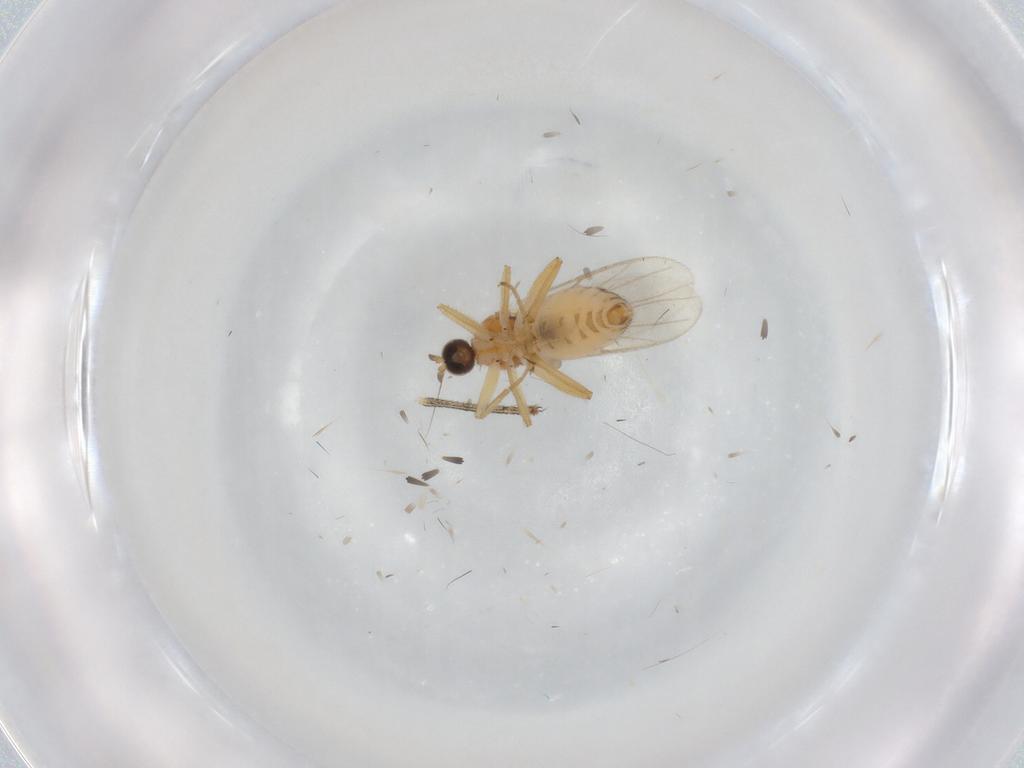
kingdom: Animalia
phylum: Arthropoda
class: Insecta
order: Diptera
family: Hybotidae
